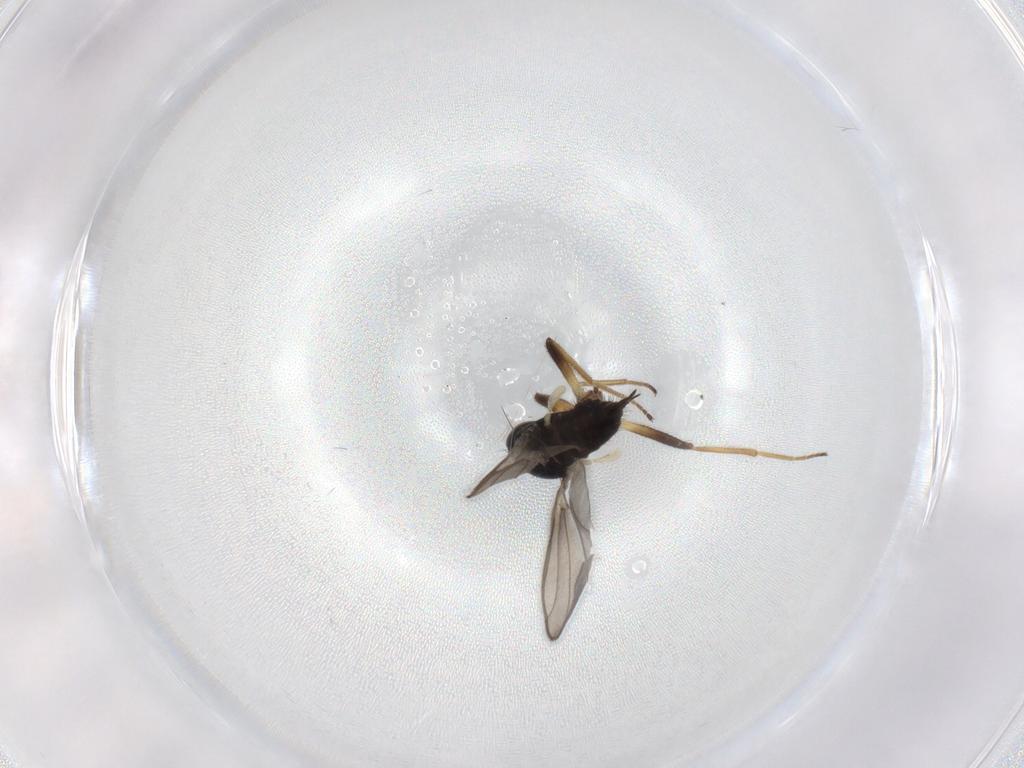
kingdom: Animalia
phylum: Arthropoda
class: Insecta
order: Diptera
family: Hybotidae
